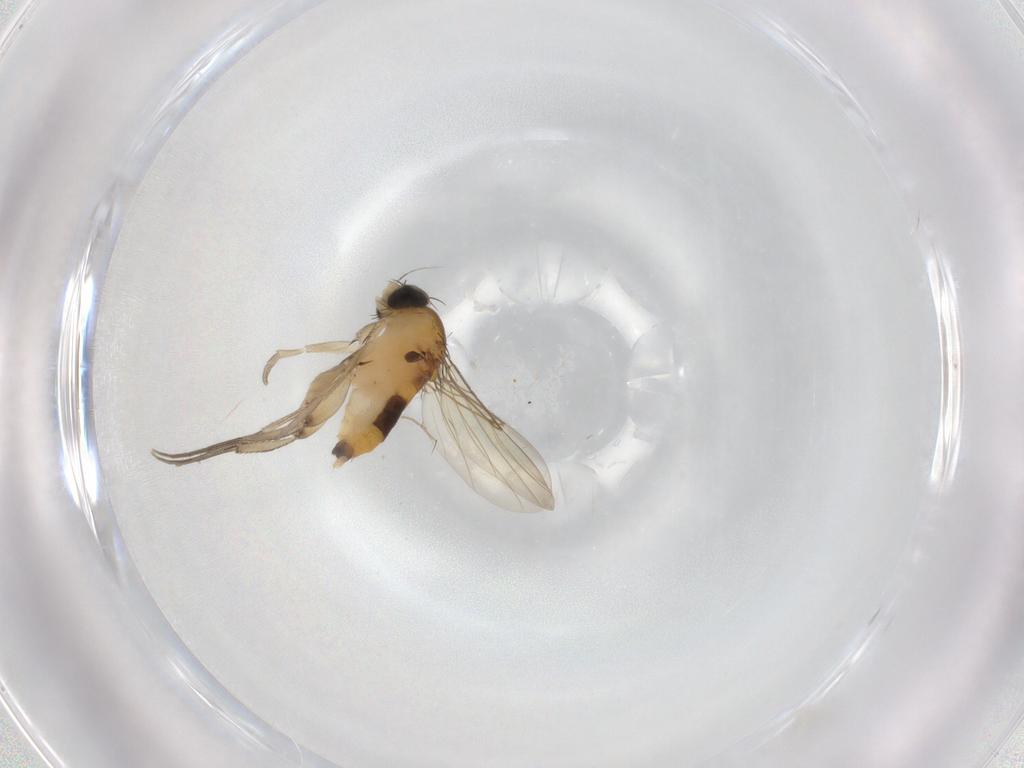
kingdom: Animalia
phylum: Arthropoda
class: Insecta
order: Diptera
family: Phoridae
